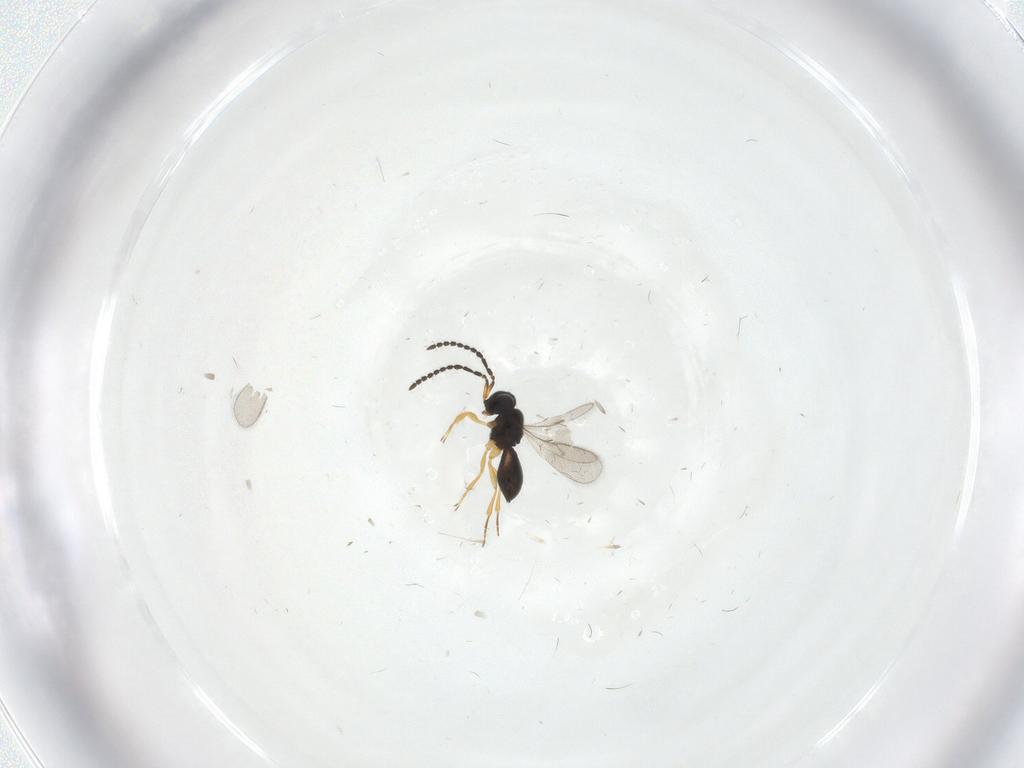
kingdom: Animalia
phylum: Arthropoda
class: Insecta
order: Hymenoptera
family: Scelionidae
